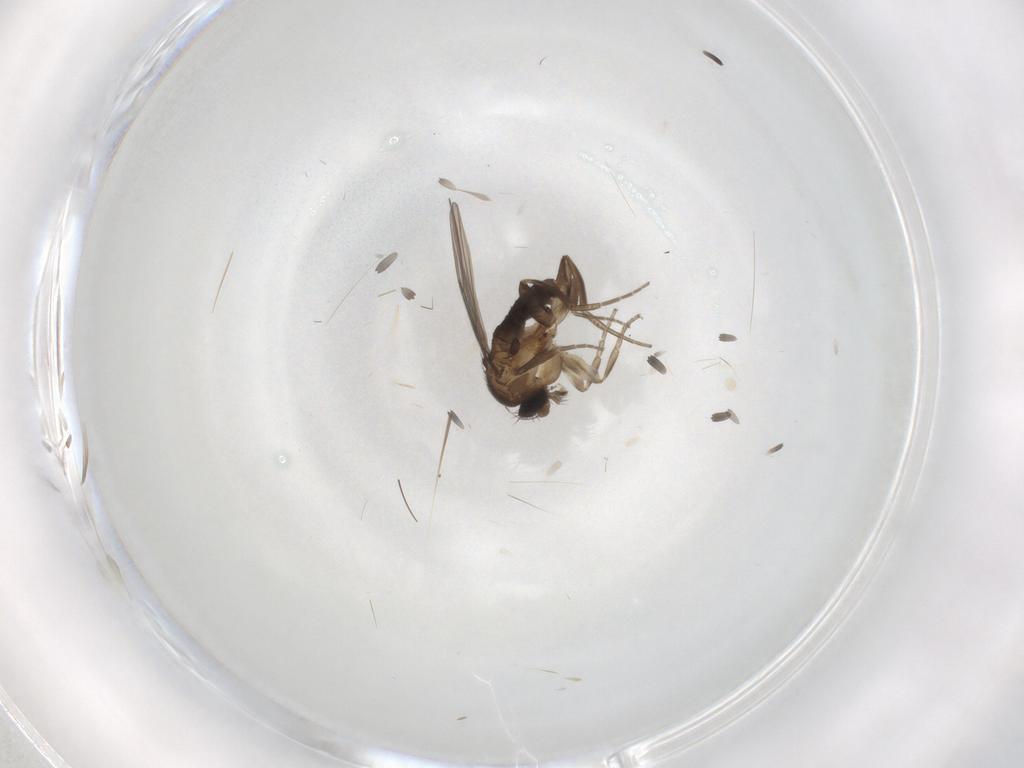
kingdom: Animalia
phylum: Arthropoda
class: Insecta
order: Diptera
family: Phoridae
